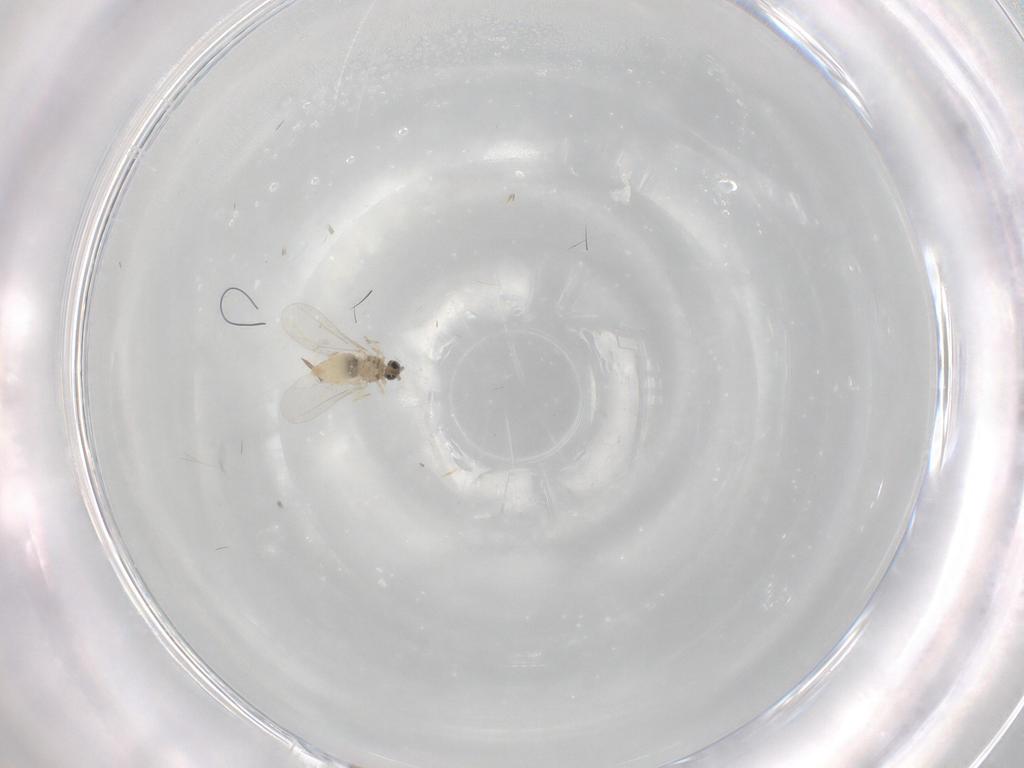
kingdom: Animalia
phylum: Arthropoda
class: Insecta
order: Diptera
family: Cecidomyiidae
